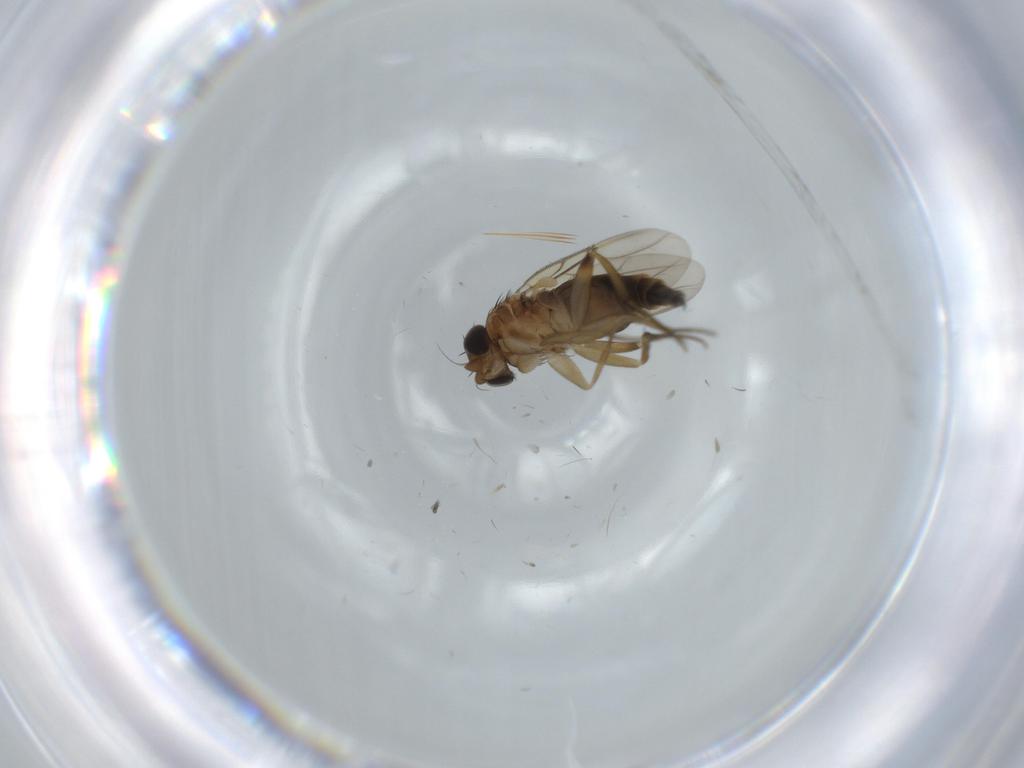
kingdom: Animalia
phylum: Arthropoda
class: Insecta
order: Diptera
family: Phoridae
